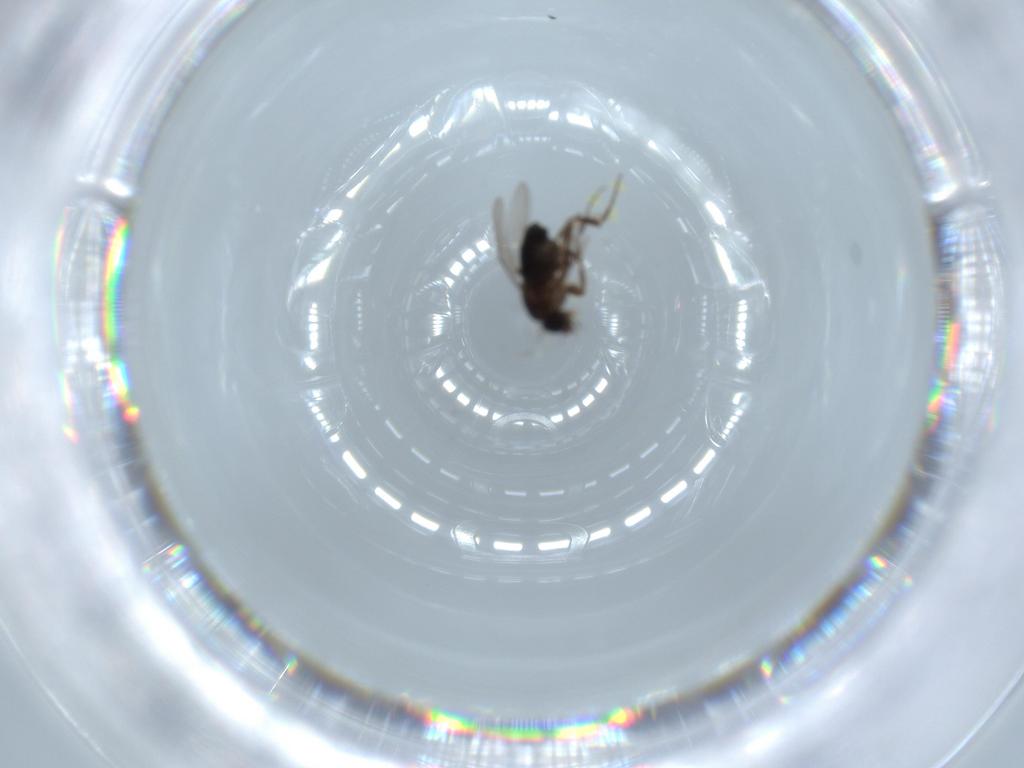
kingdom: Animalia
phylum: Arthropoda
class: Insecta
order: Diptera
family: Phoridae
